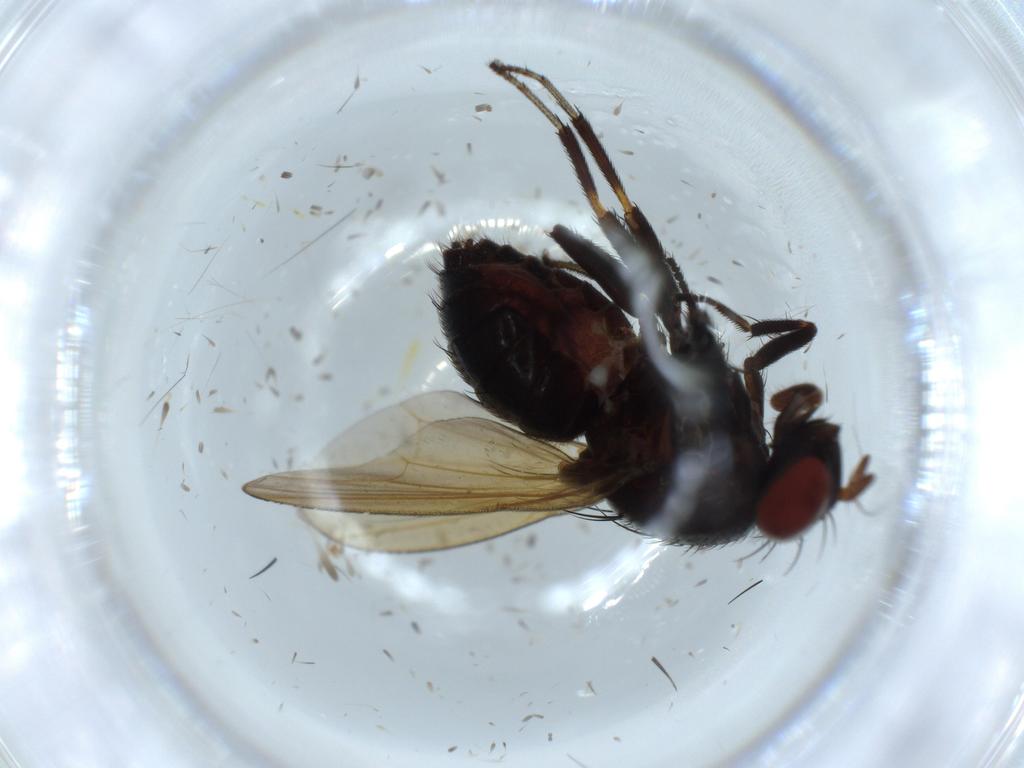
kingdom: Animalia
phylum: Arthropoda
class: Insecta
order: Diptera
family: Lauxaniidae
